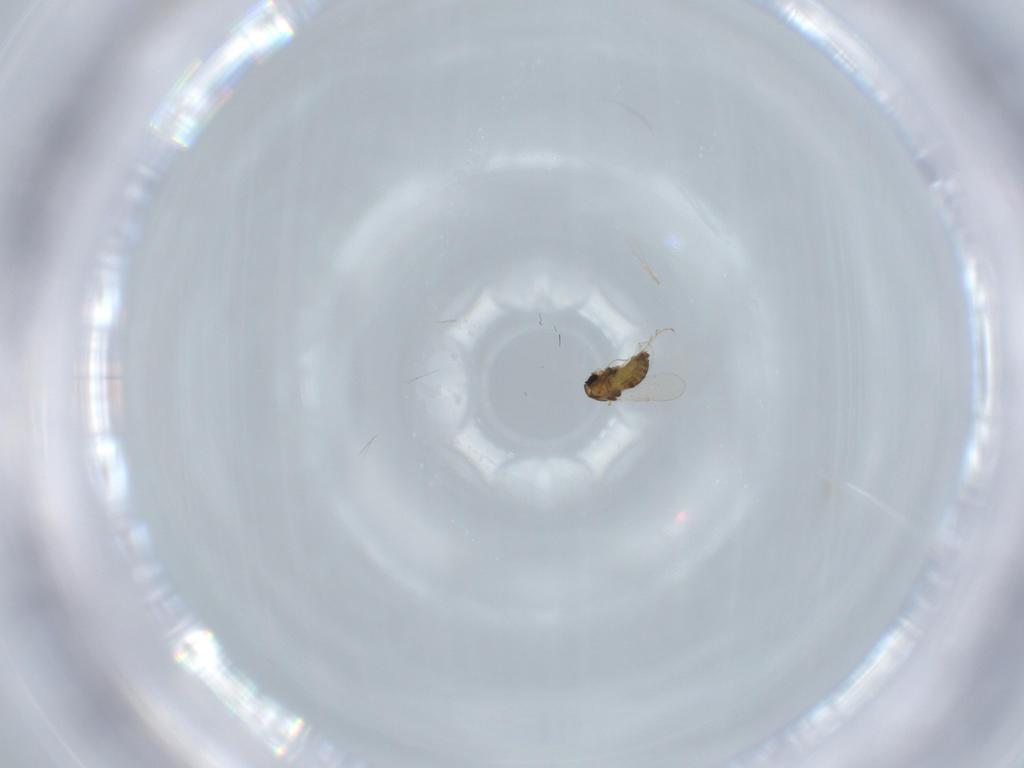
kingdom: Animalia
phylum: Arthropoda
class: Insecta
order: Diptera
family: Chironomidae
